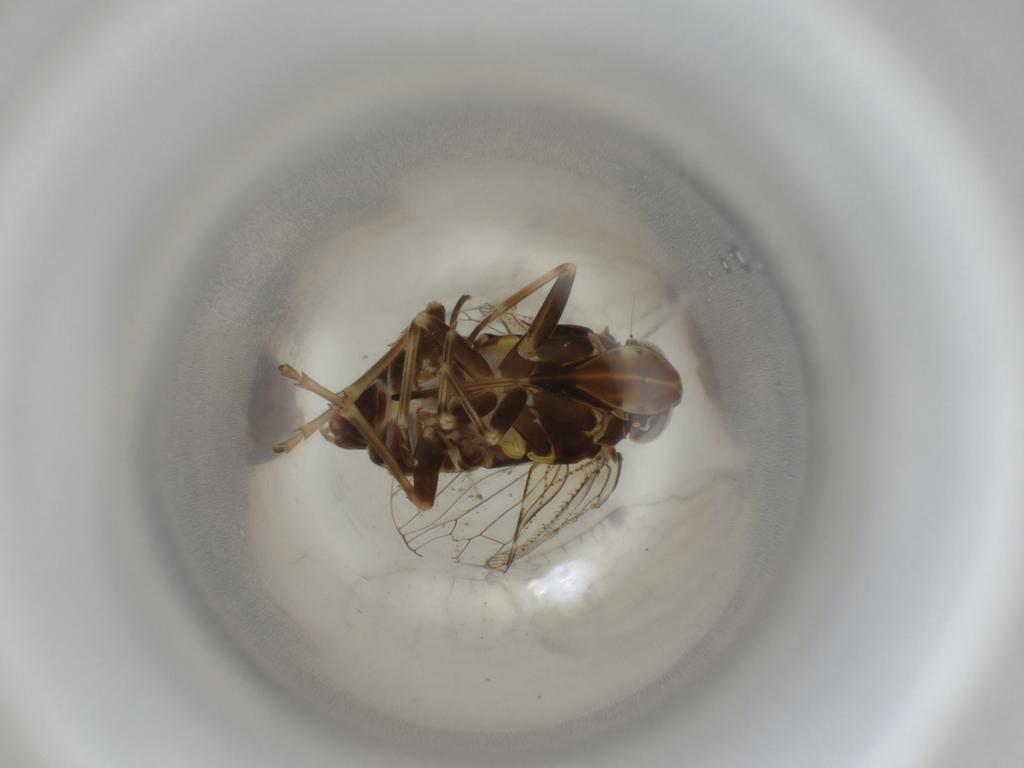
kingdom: Animalia
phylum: Arthropoda
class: Insecta
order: Hemiptera
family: Cixiidae
